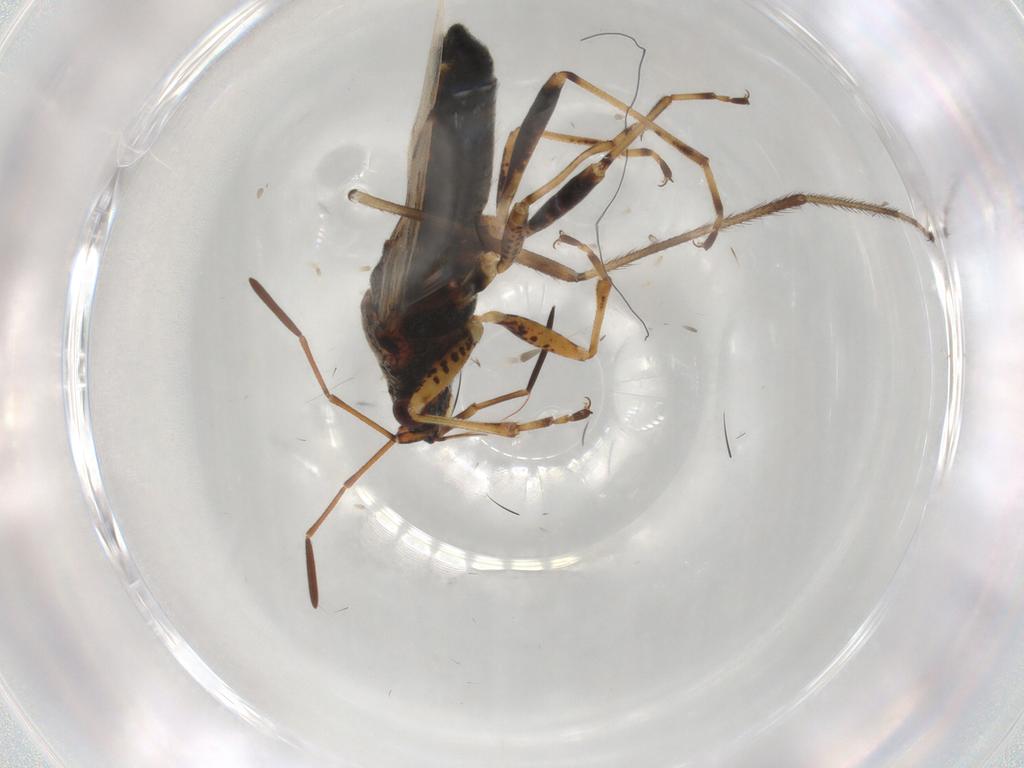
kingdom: Animalia
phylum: Arthropoda
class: Insecta
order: Hemiptera
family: Lygaeidae
